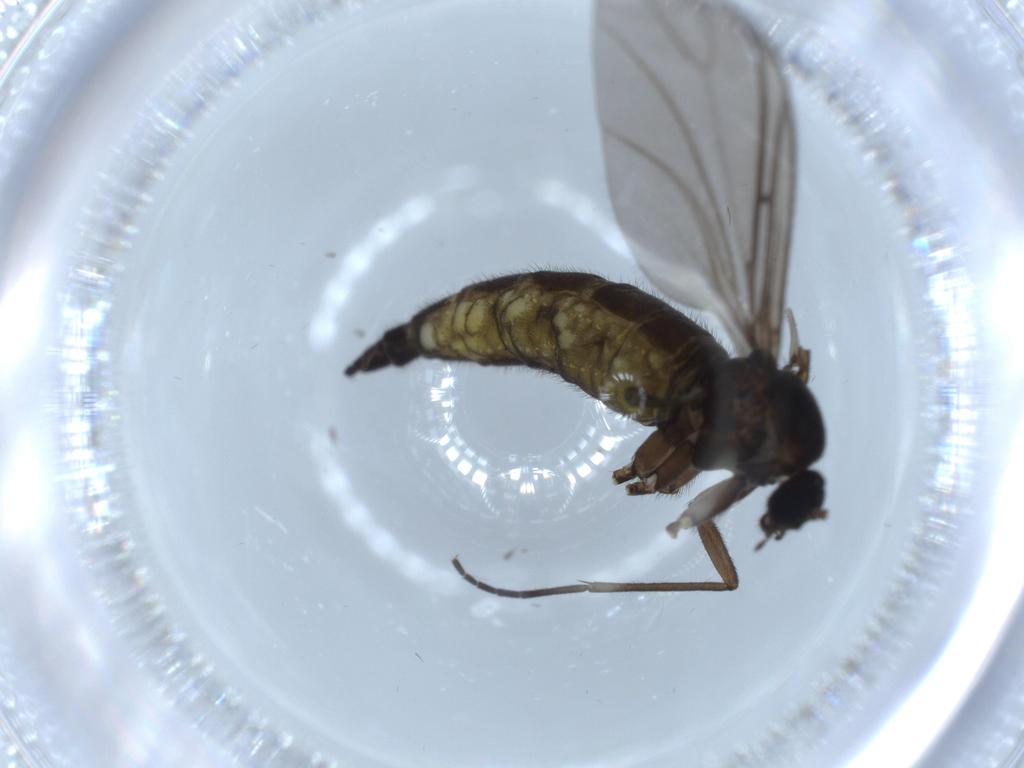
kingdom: Animalia
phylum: Arthropoda
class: Insecta
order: Diptera
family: Sciaridae
